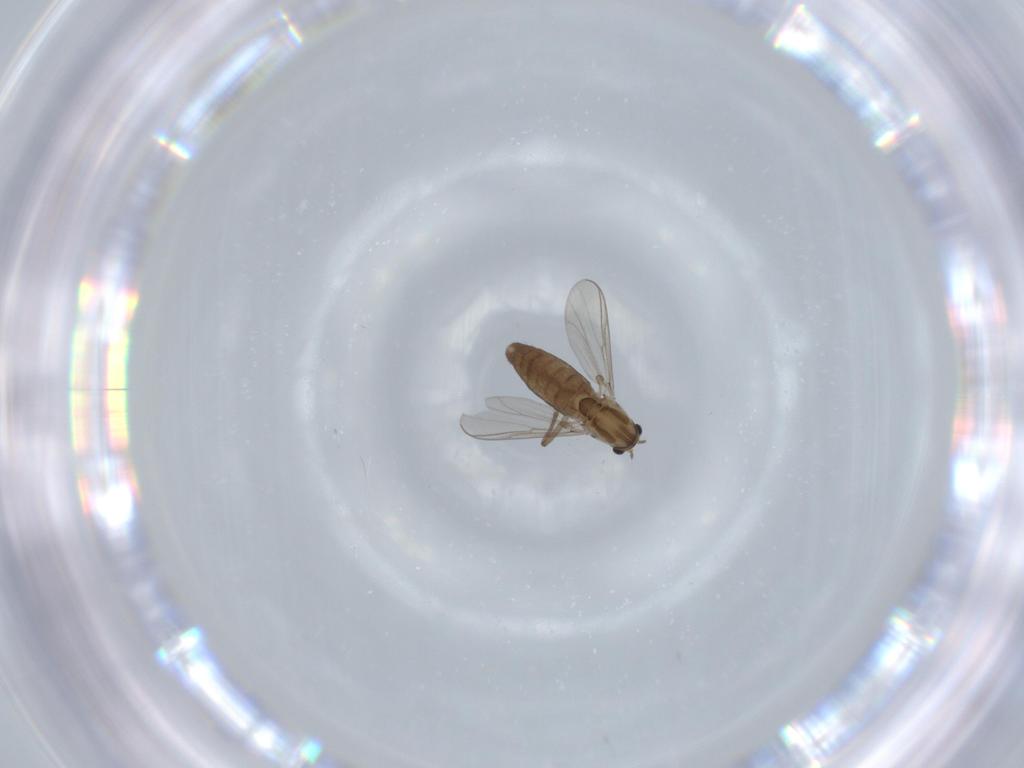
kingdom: Animalia
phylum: Arthropoda
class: Insecta
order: Diptera
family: Chironomidae
